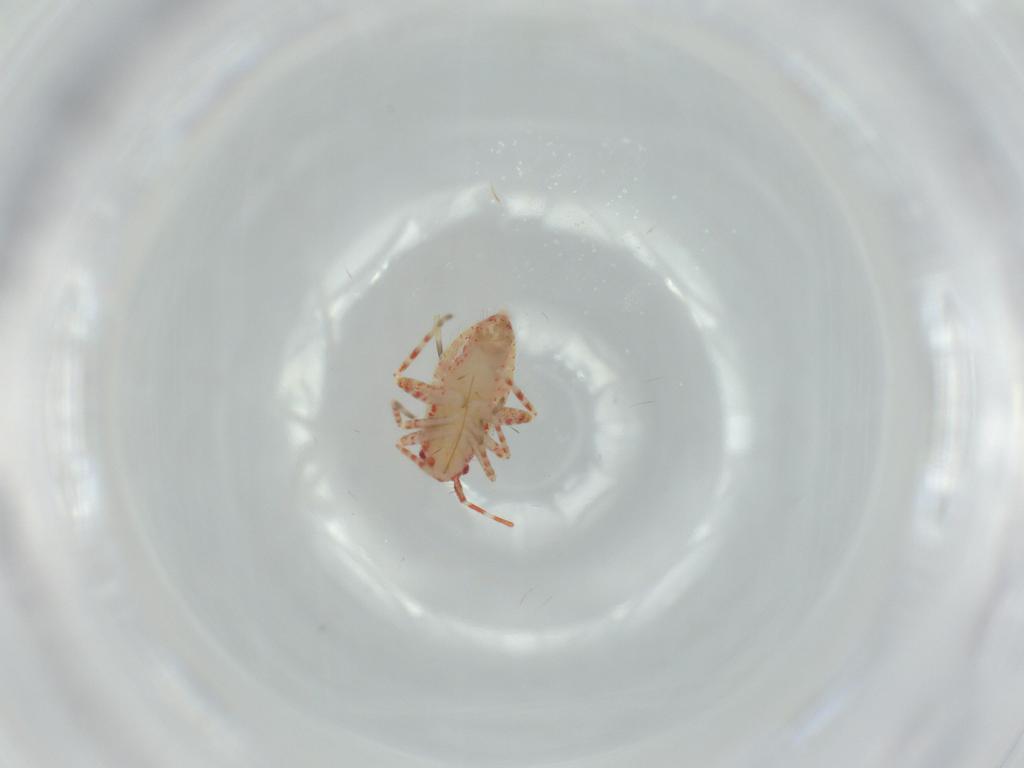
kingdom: Animalia
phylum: Arthropoda
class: Insecta
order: Hemiptera
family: Miridae
